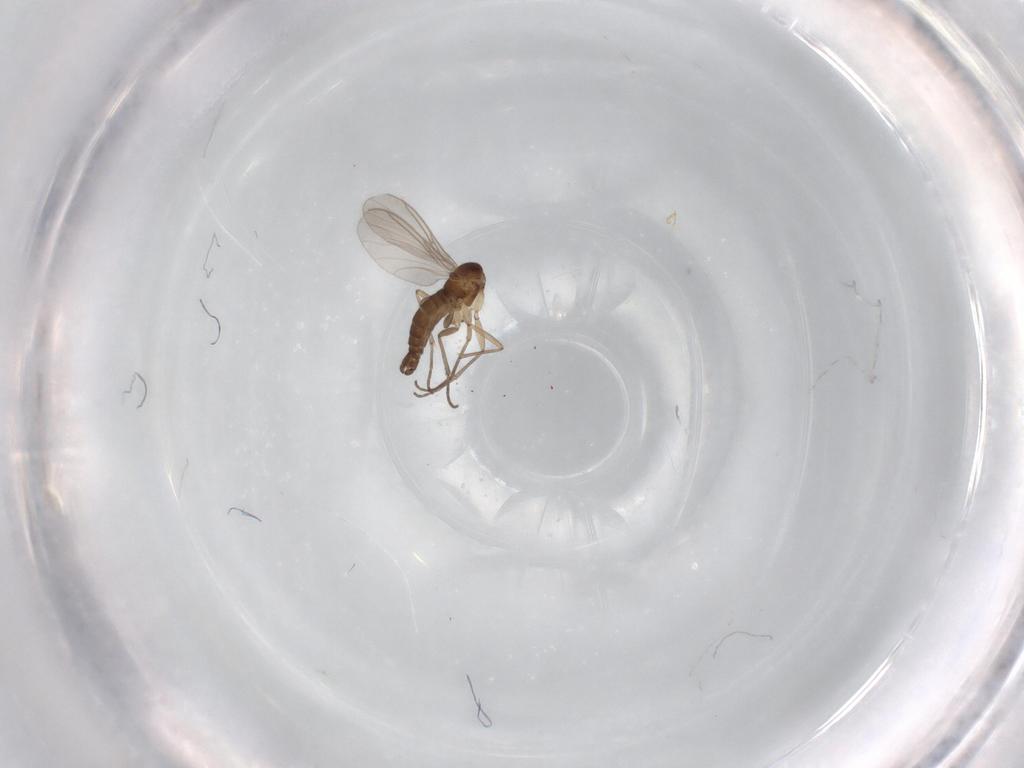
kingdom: Animalia
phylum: Arthropoda
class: Insecta
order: Diptera
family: Sciaridae
